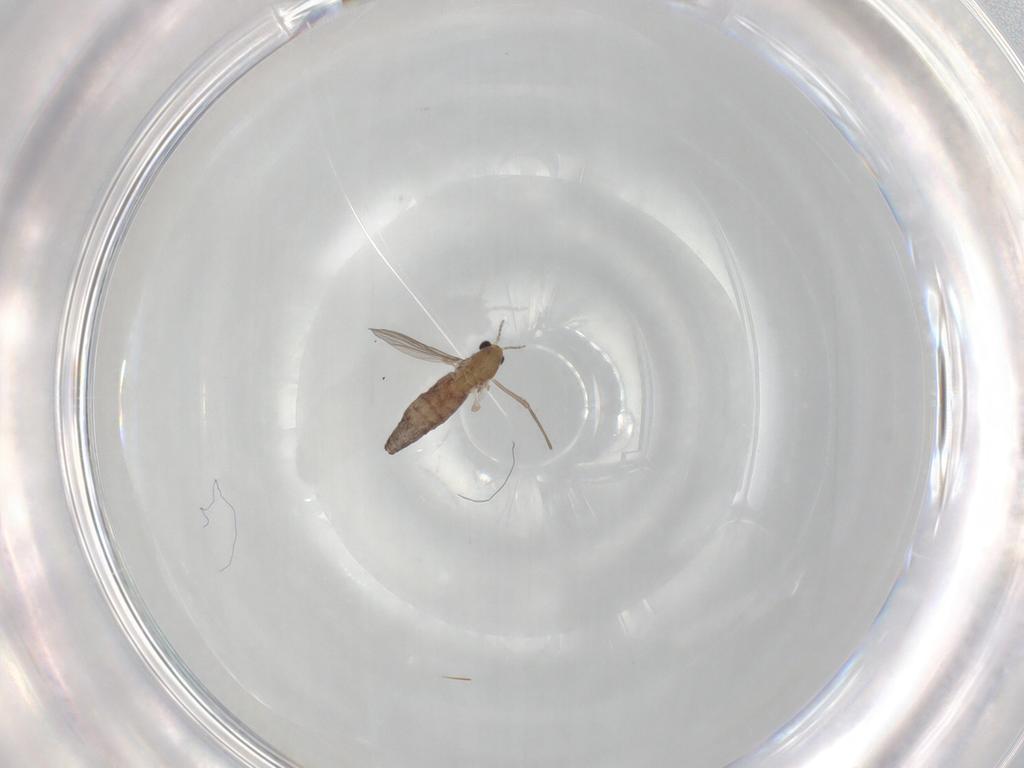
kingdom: Animalia
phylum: Arthropoda
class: Insecta
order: Diptera
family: Chironomidae
